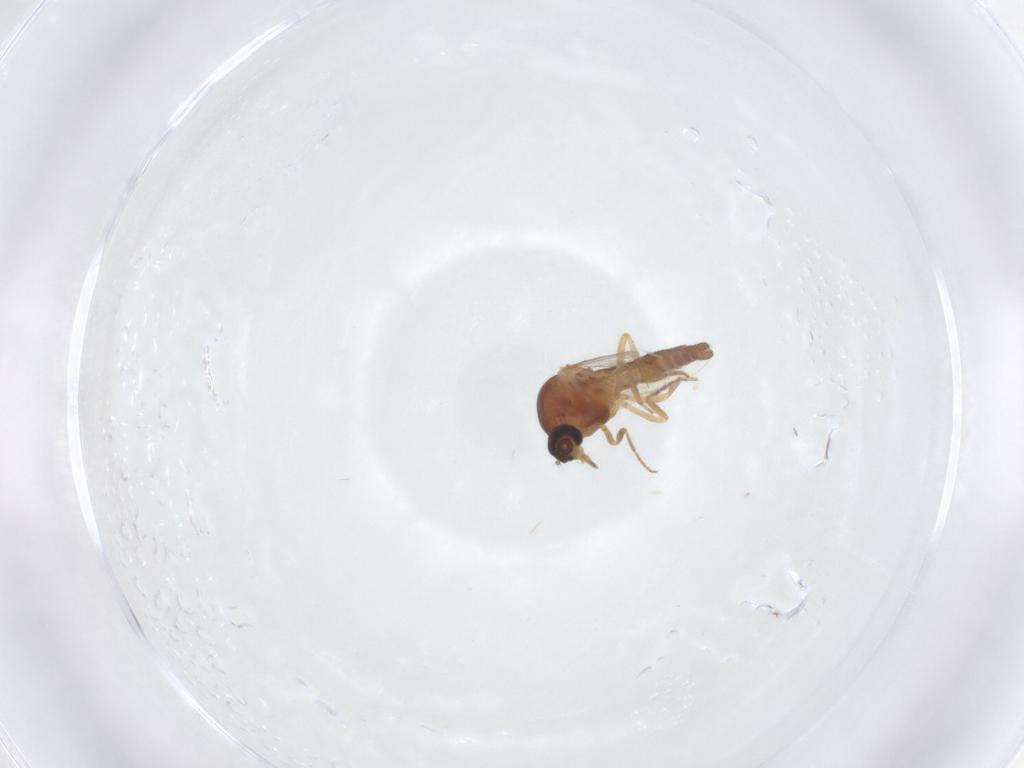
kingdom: Animalia
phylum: Arthropoda
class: Insecta
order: Diptera
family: Ceratopogonidae
